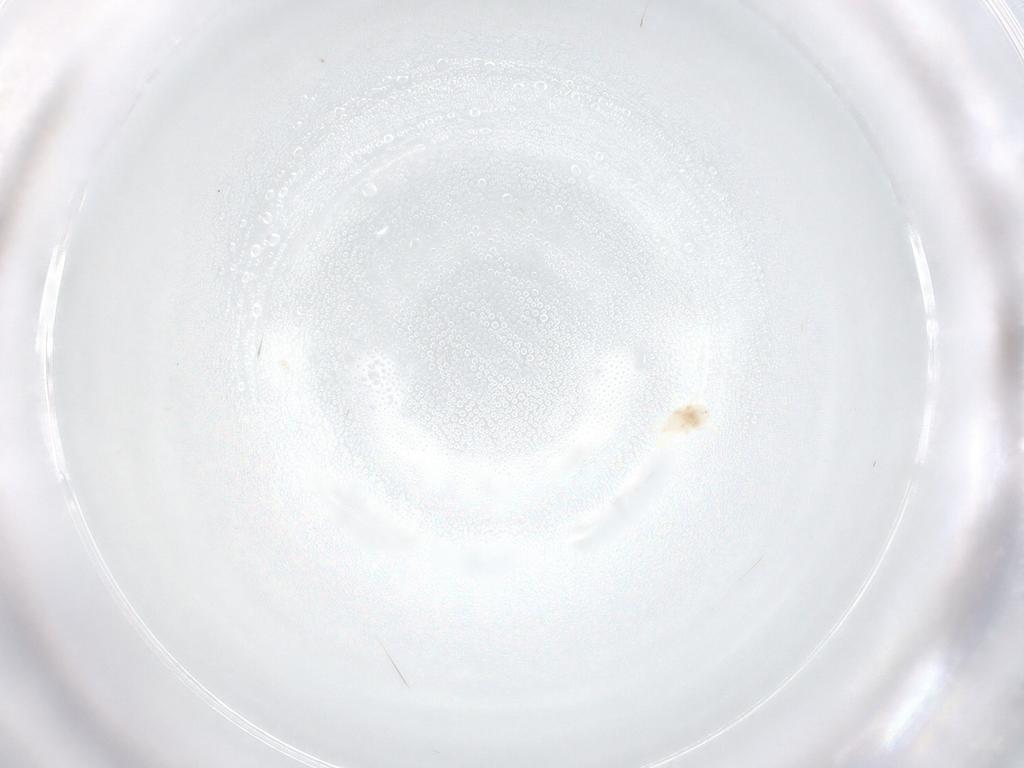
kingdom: Animalia
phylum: Arthropoda
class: Arachnida
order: Mesostigmata
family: Melicharidae
